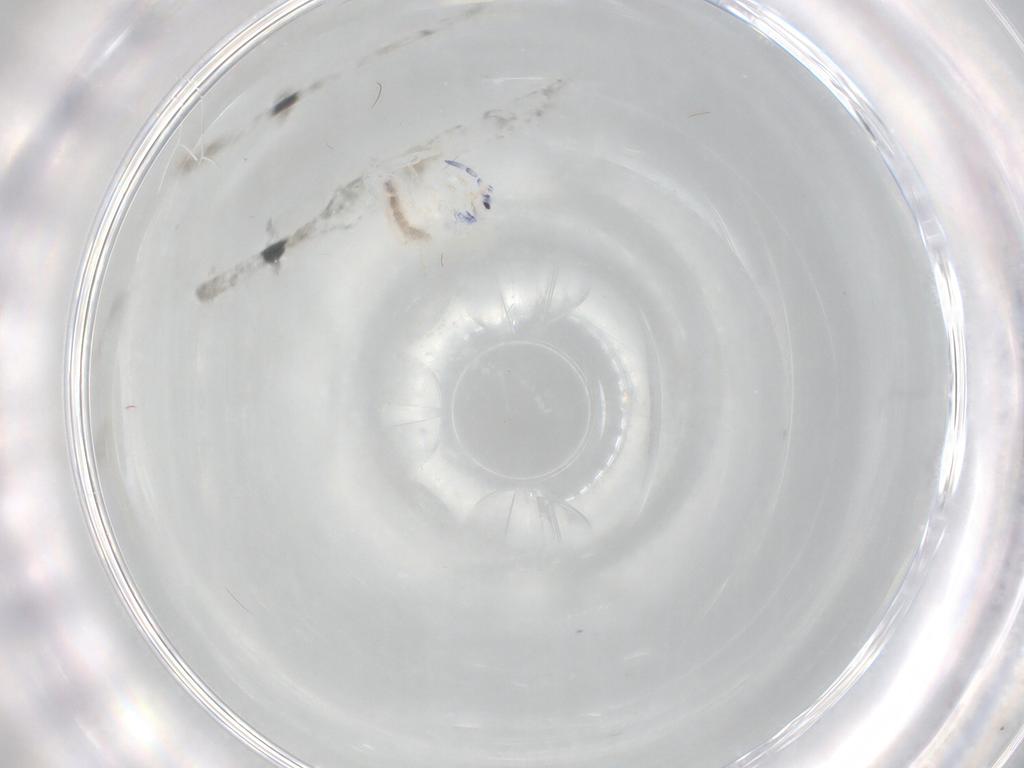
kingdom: Animalia
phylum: Arthropoda
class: Collembola
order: Entomobryomorpha
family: Entomobryidae
